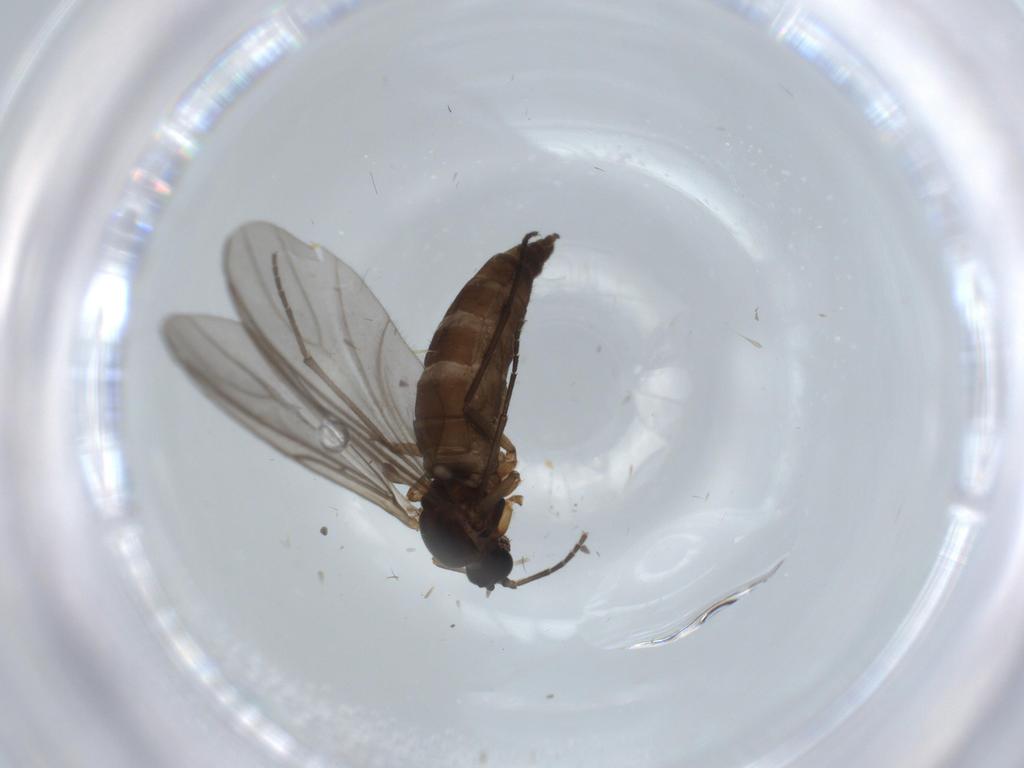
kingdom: Animalia
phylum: Arthropoda
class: Insecta
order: Diptera
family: Sciaridae
